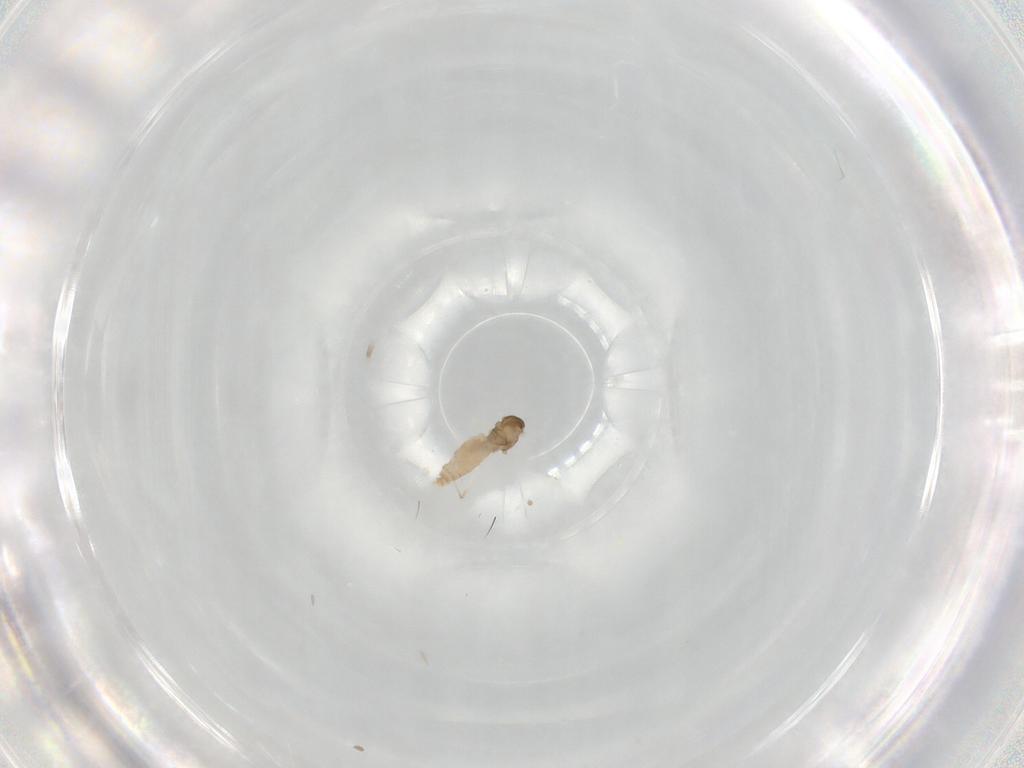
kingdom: Animalia
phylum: Arthropoda
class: Insecta
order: Diptera
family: Cecidomyiidae
